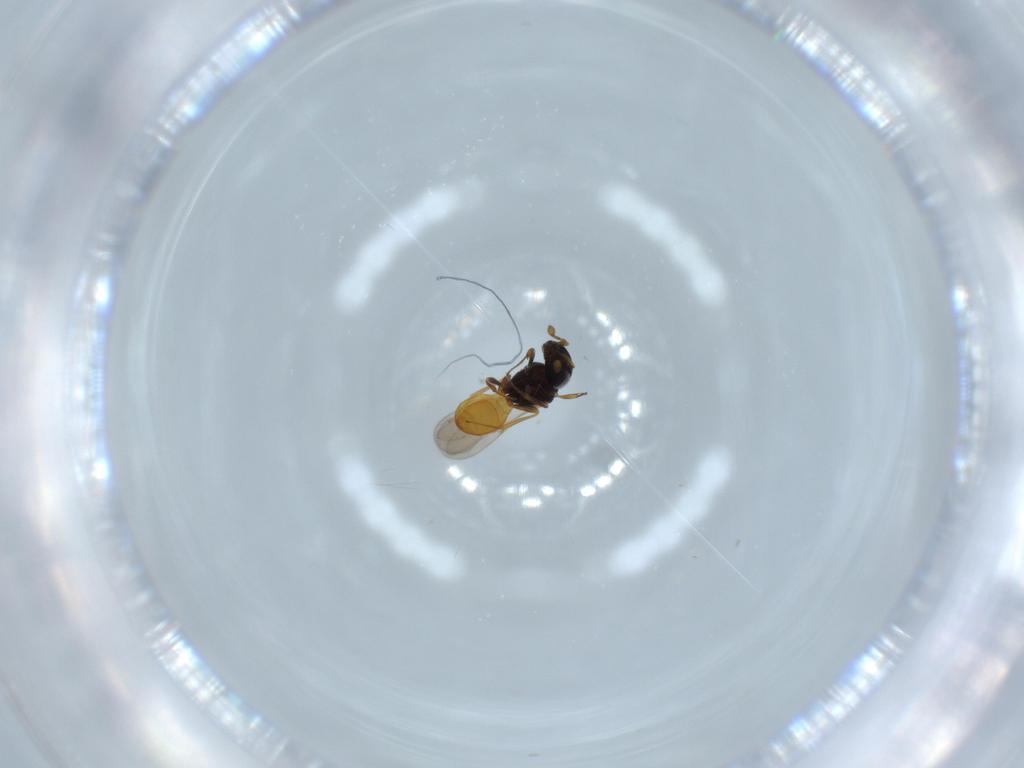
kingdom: Animalia
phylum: Arthropoda
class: Insecta
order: Hymenoptera
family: Scelionidae
